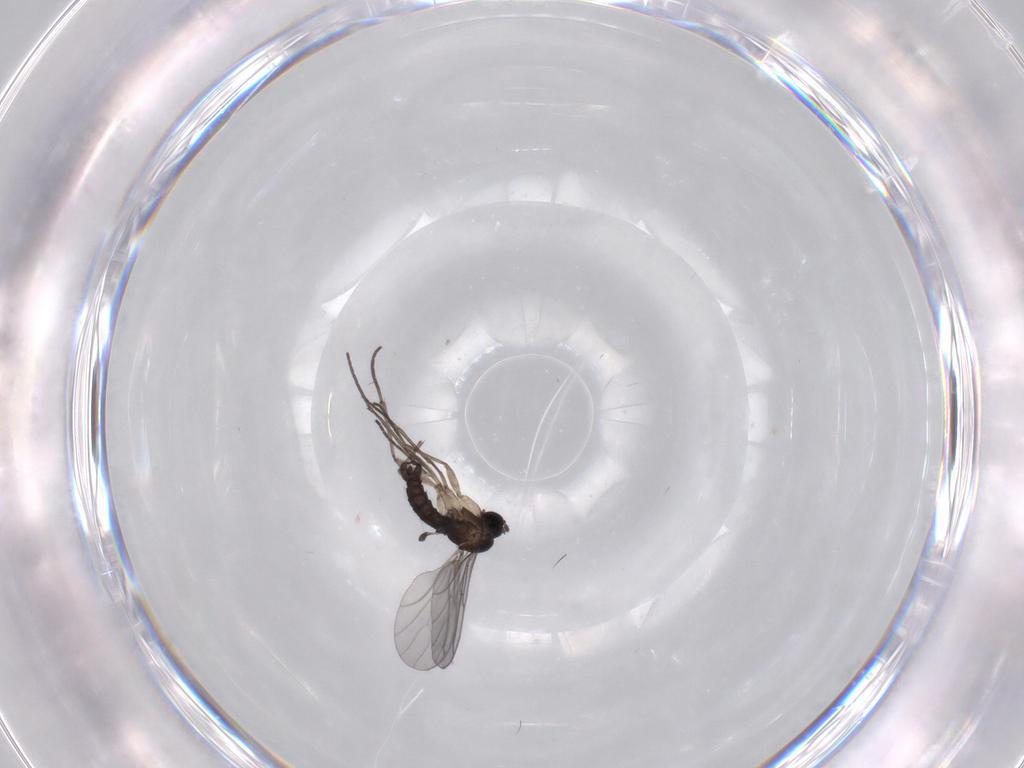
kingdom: Animalia
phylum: Arthropoda
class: Insecta
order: Diptera
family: Sciaridae
